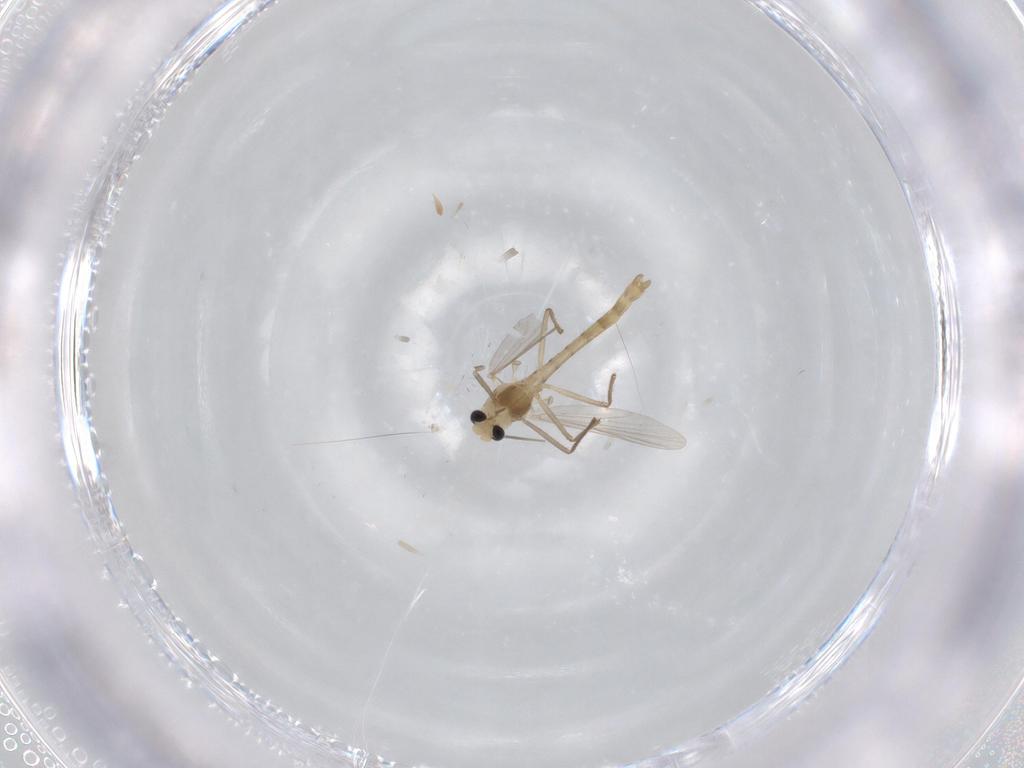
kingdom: Animalia
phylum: Arthropoda
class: Insecta
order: Diptera
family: Chironomidae
